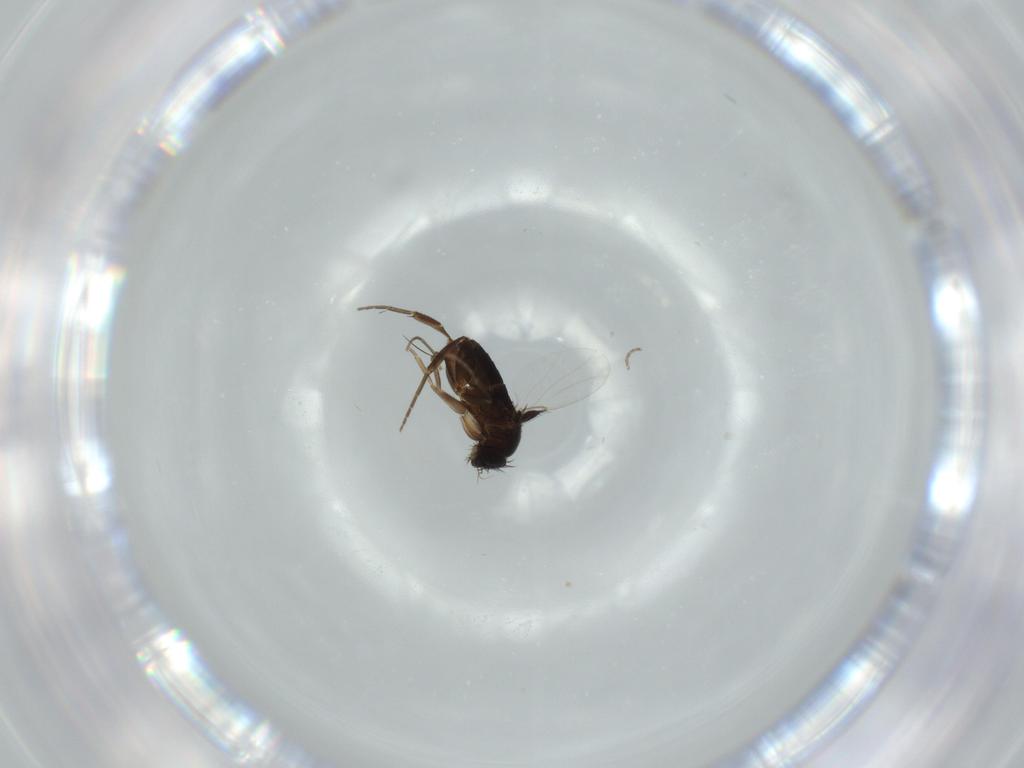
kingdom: Animalia
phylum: Arthropoda
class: Insecta
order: Diptera
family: Phoridae
